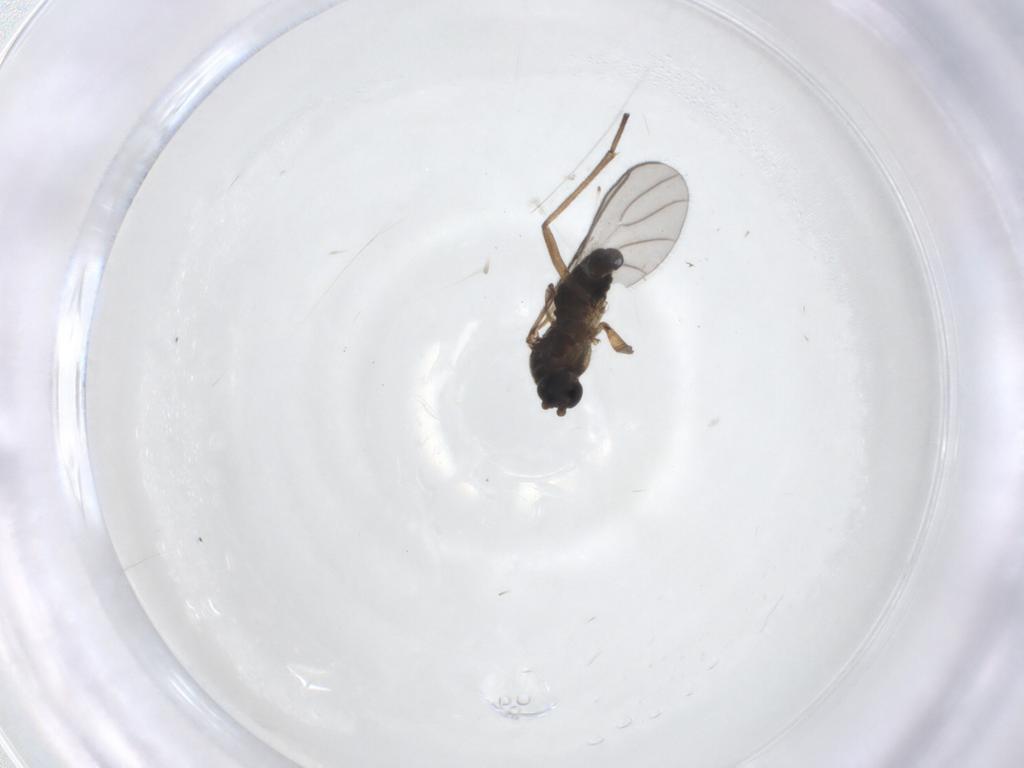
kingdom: Animalia
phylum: Arthropoda
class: Insecta
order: Diptera
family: Sciaridae
